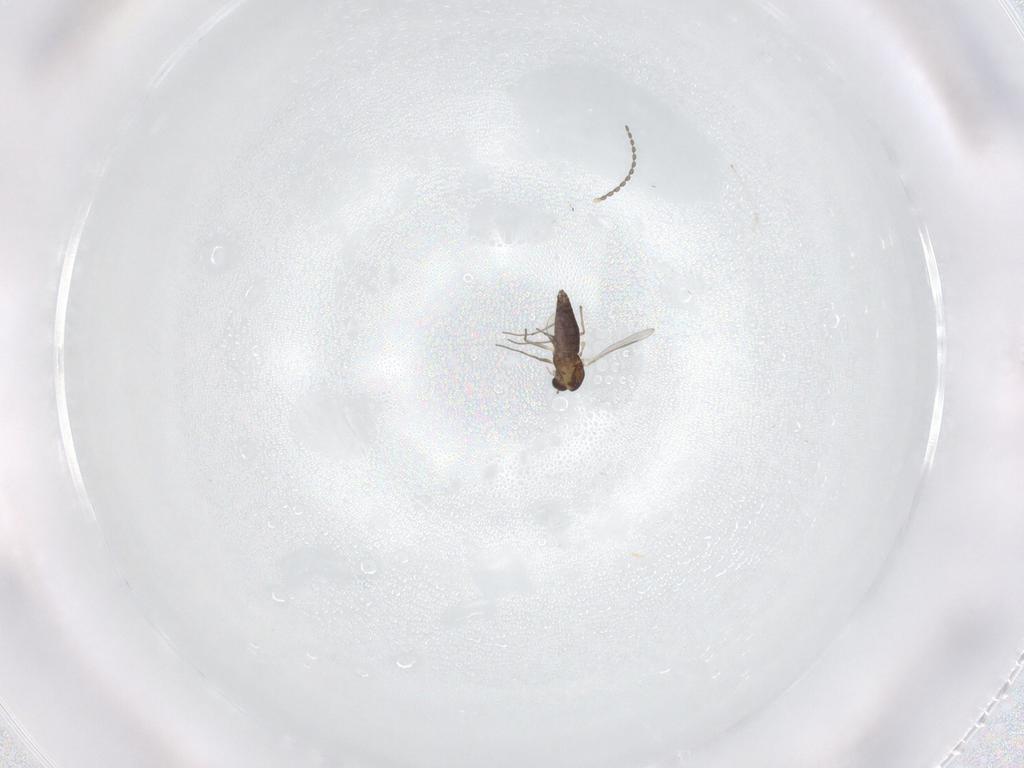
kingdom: Animalia
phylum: Arthropoda
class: Insecta
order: Diptera
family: Chironomidae
